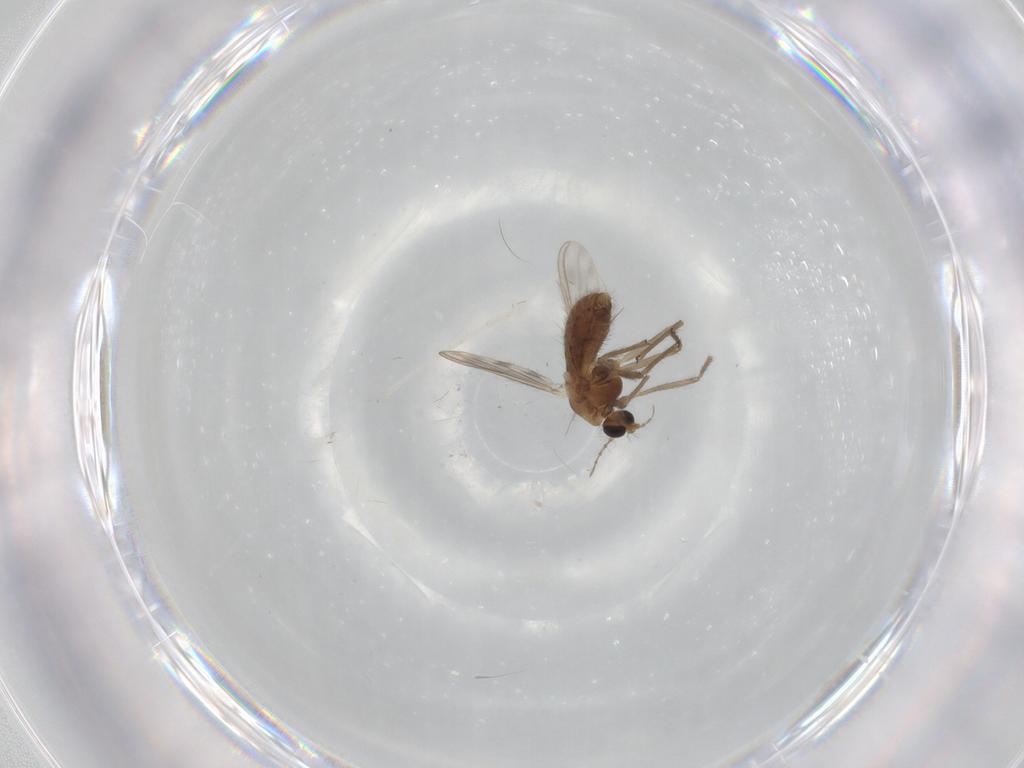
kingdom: Animalia
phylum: Arthropoda
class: Insecta
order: Diptera
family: Chironomidae
